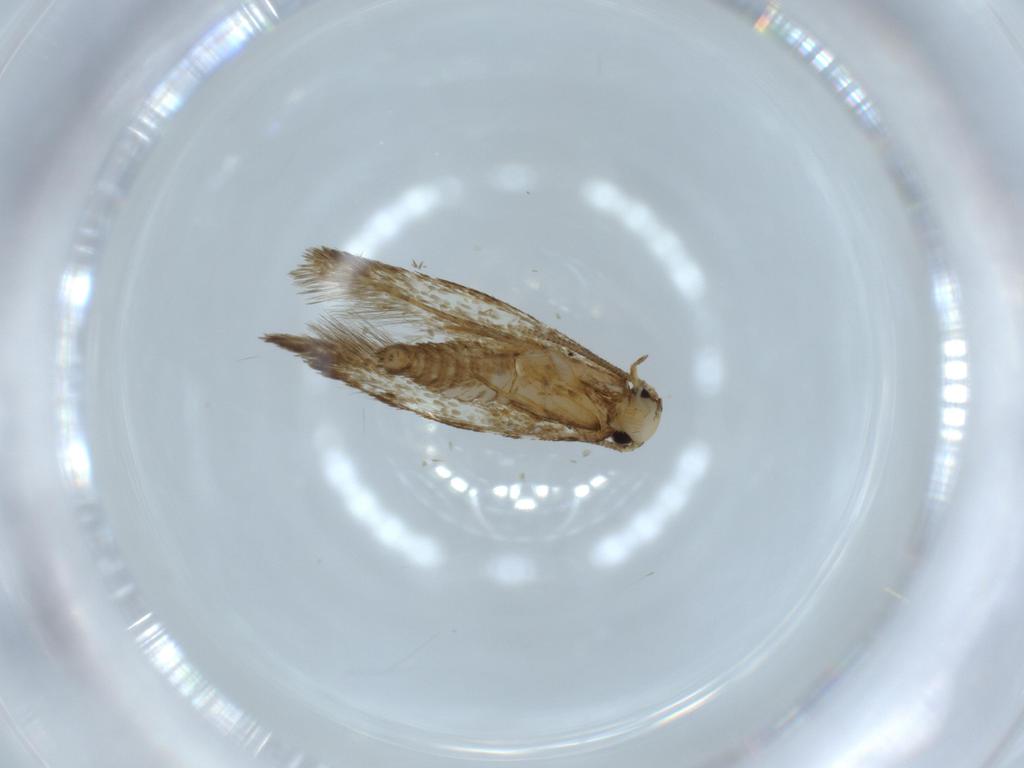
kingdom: Animalia
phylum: Arthropoda
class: Insecta
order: Lepidoptera
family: Tineidae
